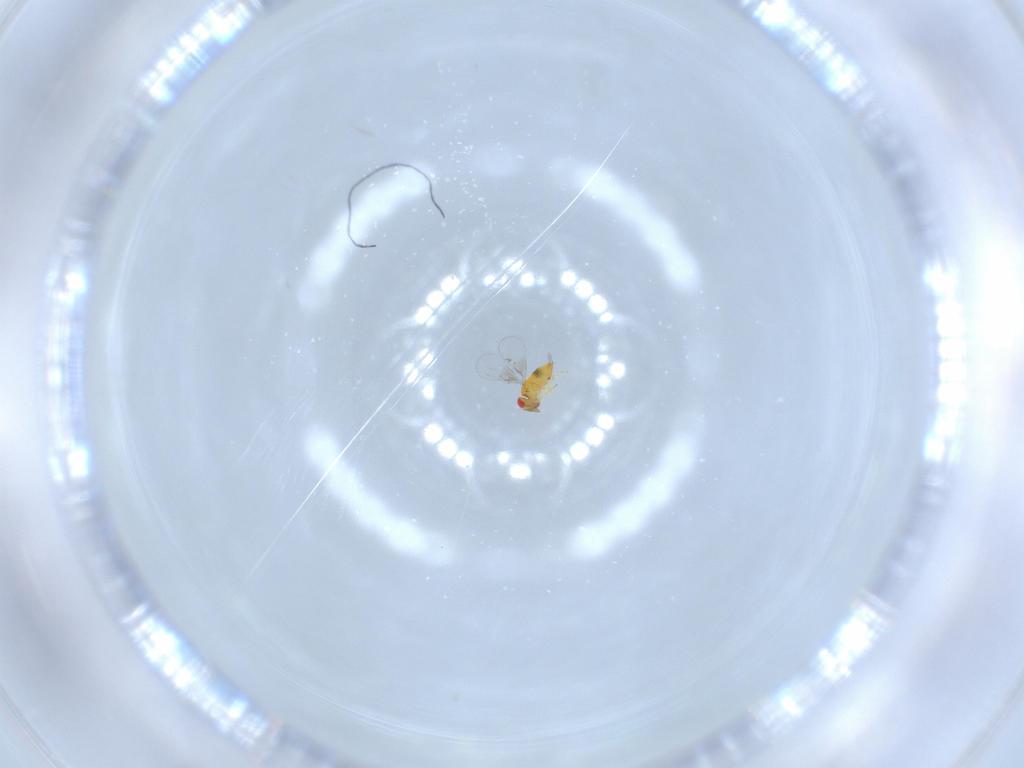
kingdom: Animalia
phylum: Arthropoda
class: Insecta
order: Hymenoptera
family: Trichogrammatidae
